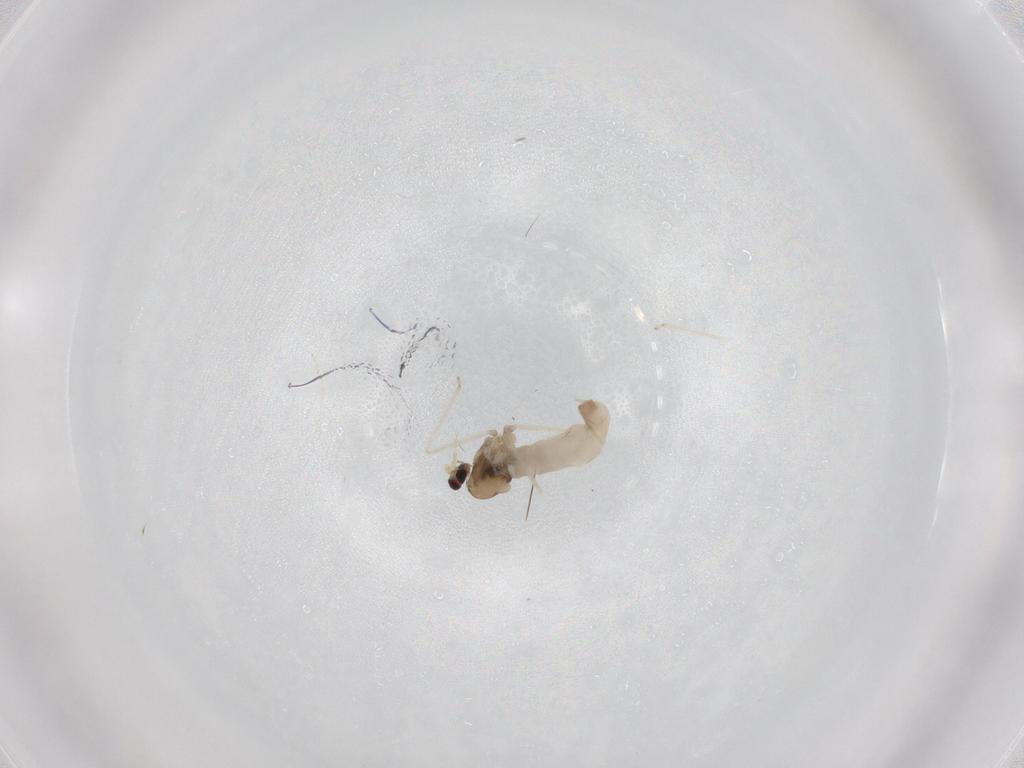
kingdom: Animalia
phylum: Arthropoda
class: Insecta
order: Diptera
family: Cecidomyiidae
